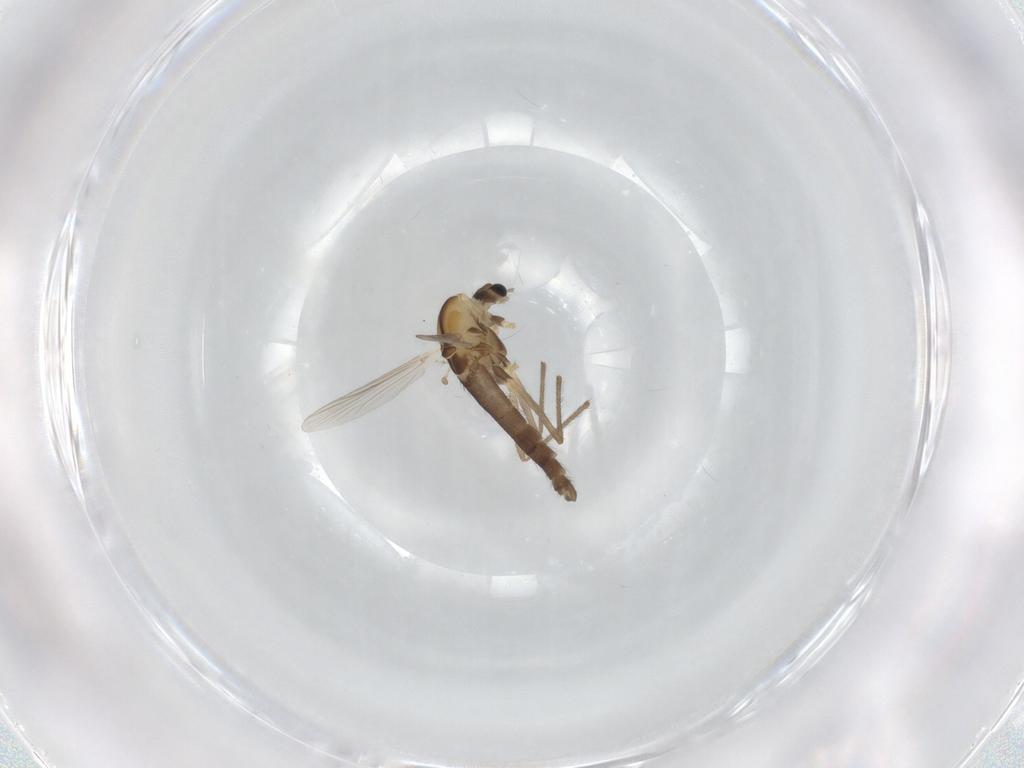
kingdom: Animalia
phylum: Arthropoda
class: Insecta
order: Diptera
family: Chironomidae
